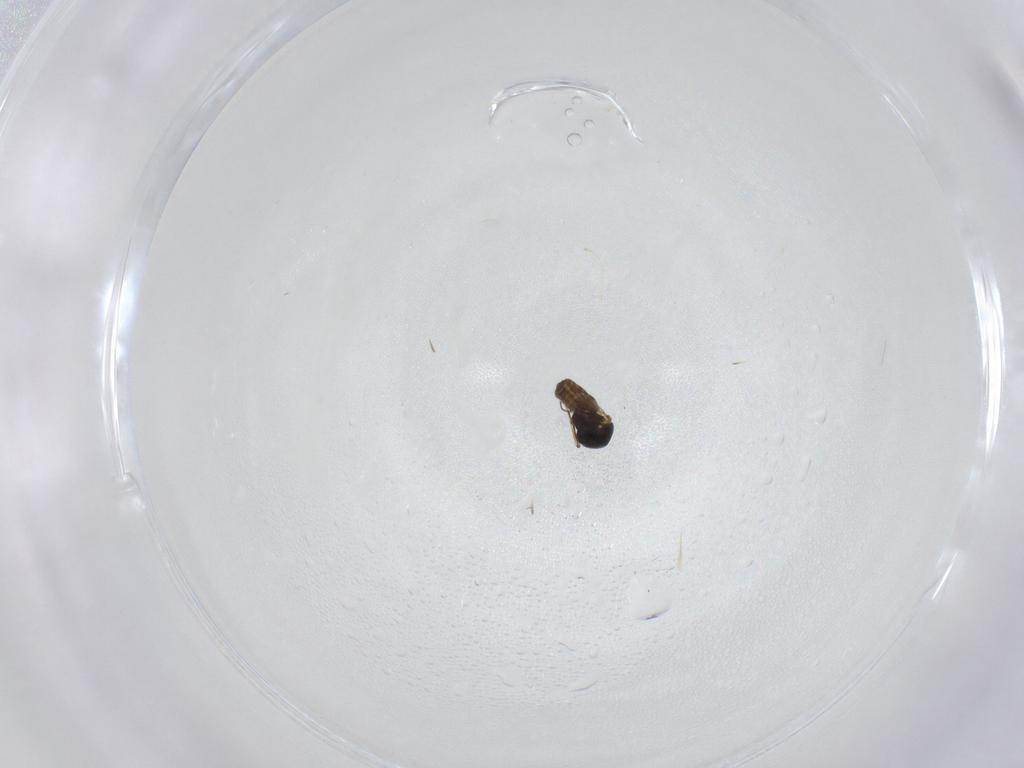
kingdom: Animalia
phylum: Arthropoda
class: Insecta
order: Diptera
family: Ceratopogonidae
